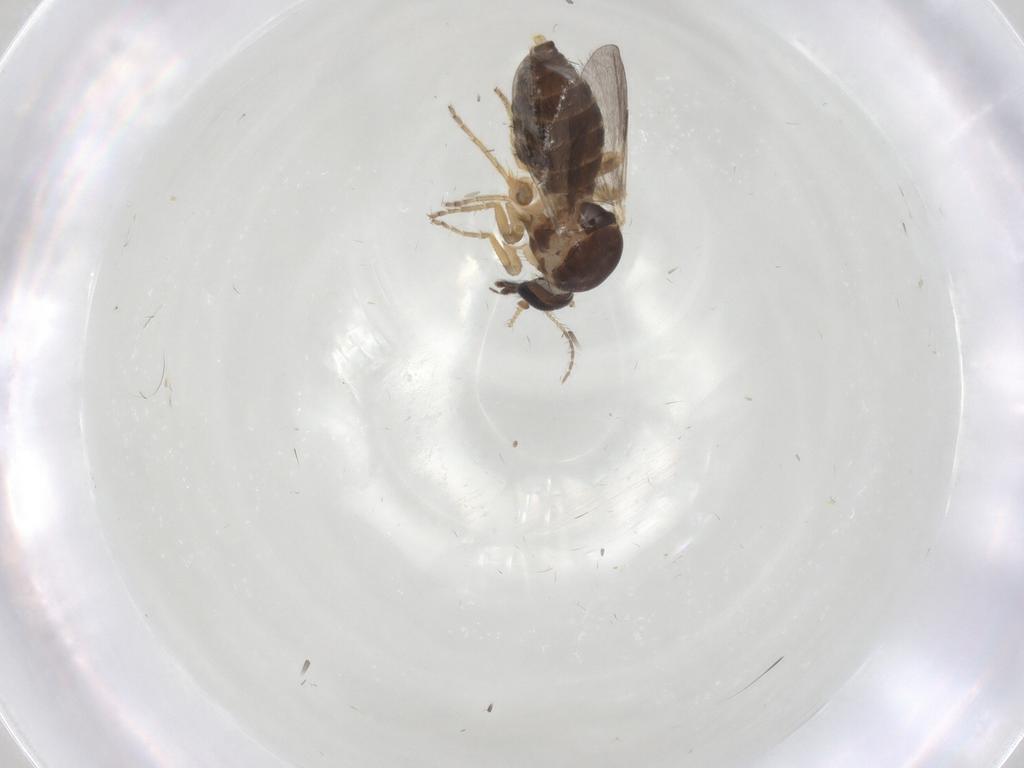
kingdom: Animalia
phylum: Arthropoda
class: Insecta
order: Diptera
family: Ceratopogonidae
